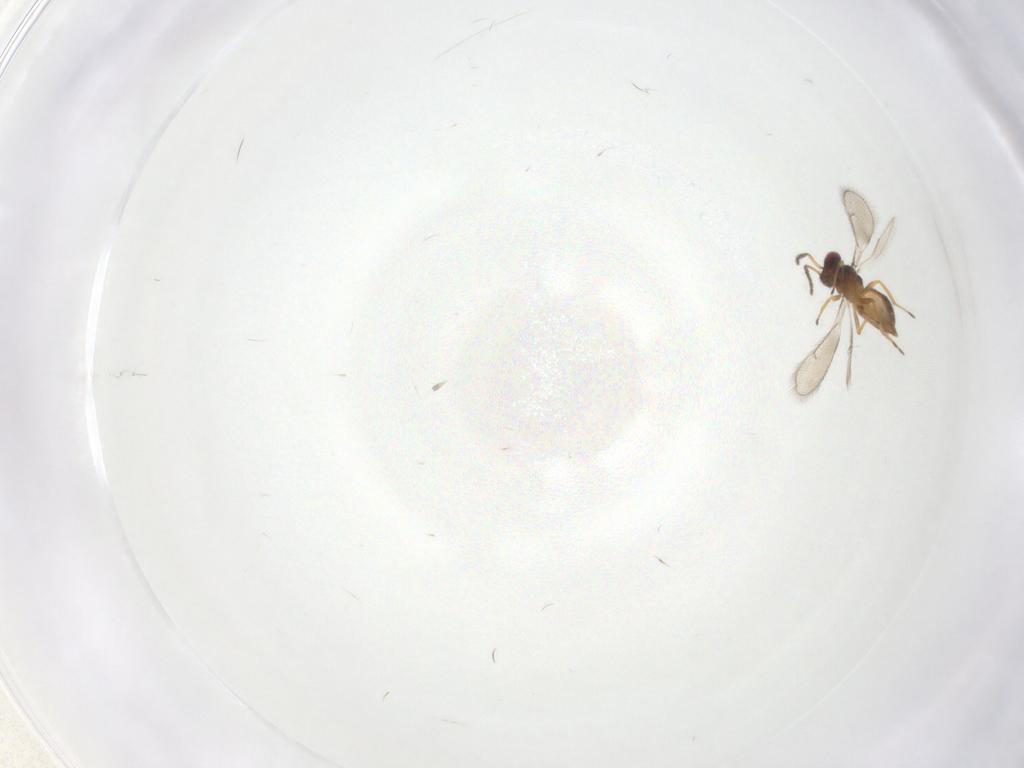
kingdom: Animalia
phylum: Arthropoda
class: Insecta
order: Hymenoptera
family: Eulophidae
